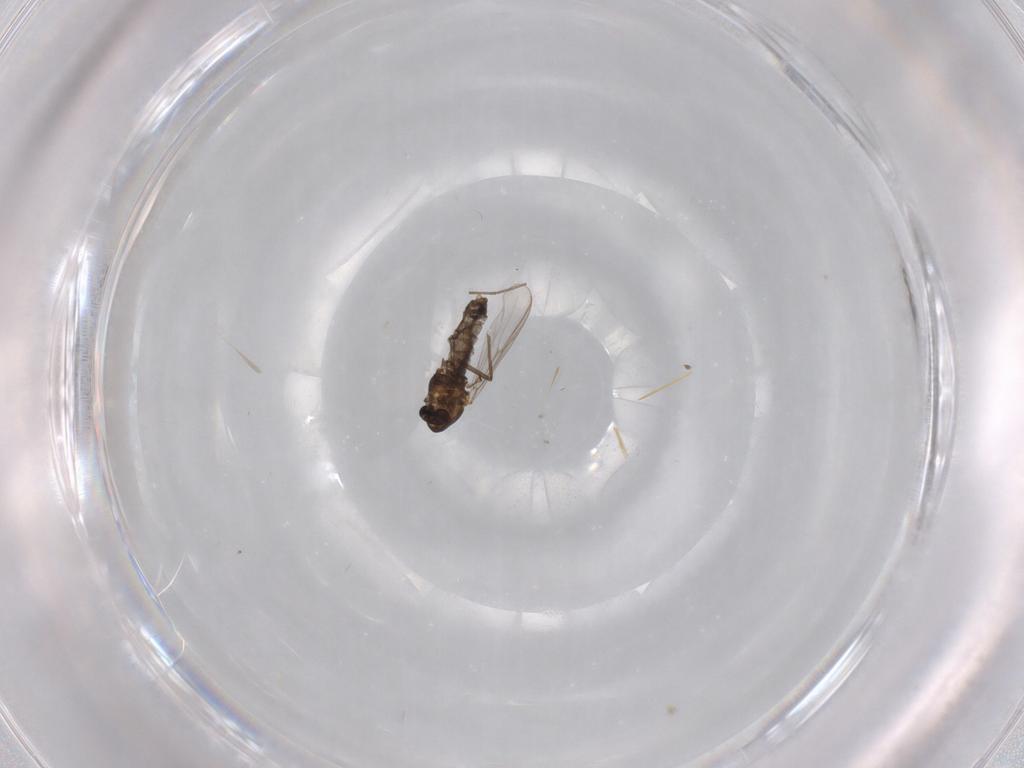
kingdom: Animalia
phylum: Arthropoda
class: Insecta
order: Diptera
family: Chironomidae
